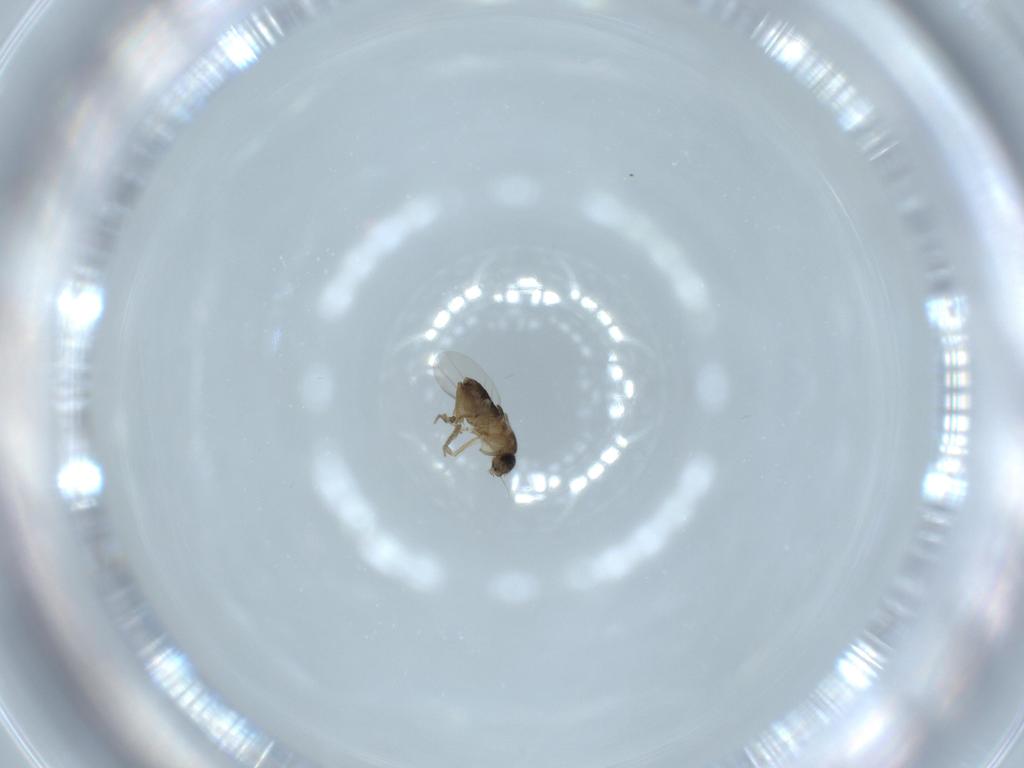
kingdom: Animalia
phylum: Arthropoda
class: Insecta
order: Diptera
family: Phoridae
